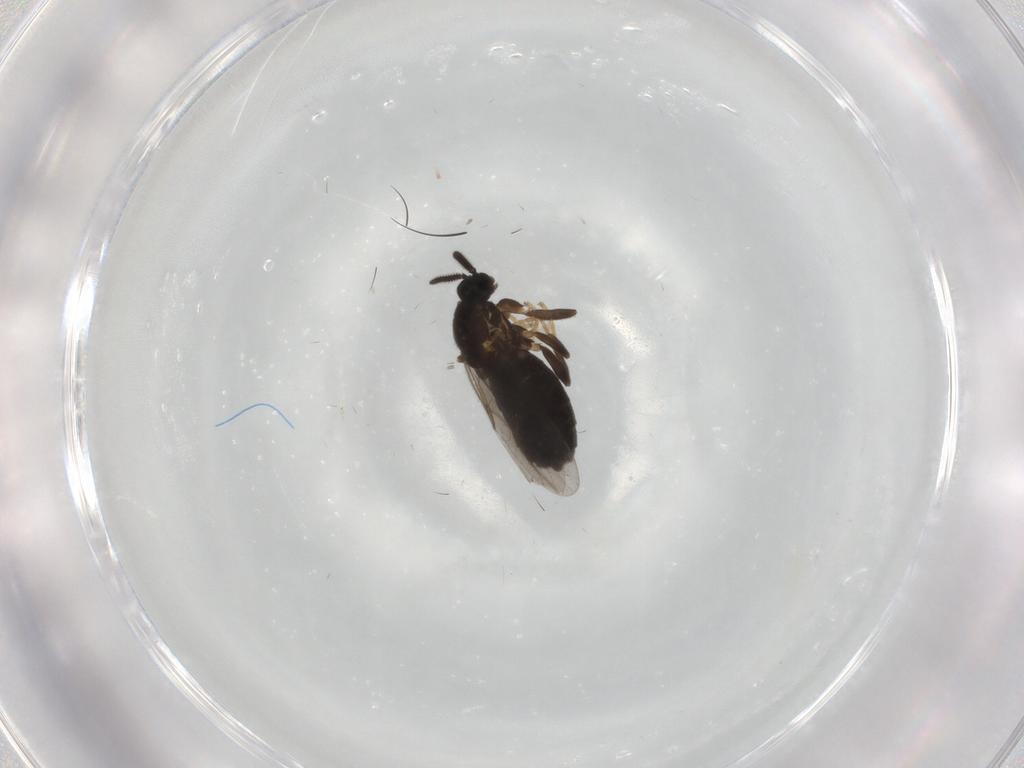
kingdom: Animalia
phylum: Arthropoda
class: Insecta
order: Diptera
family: Scatopsidae
